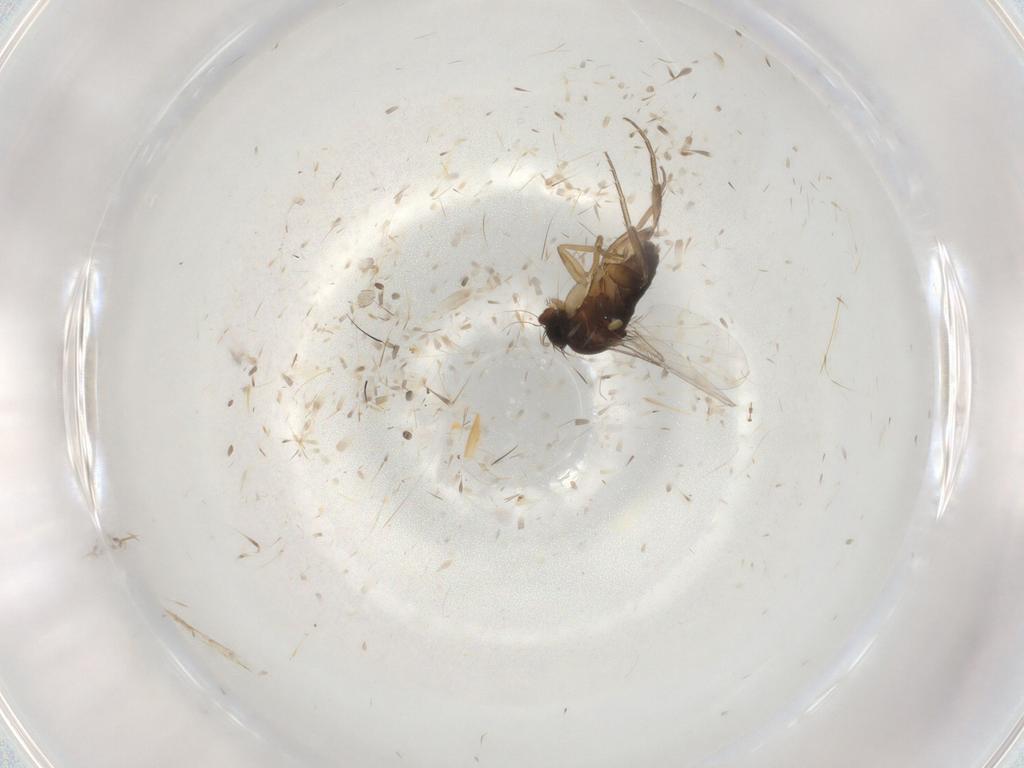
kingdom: Animalia
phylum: Arthropoda
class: Insecta
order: Diptera
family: Phoridae
